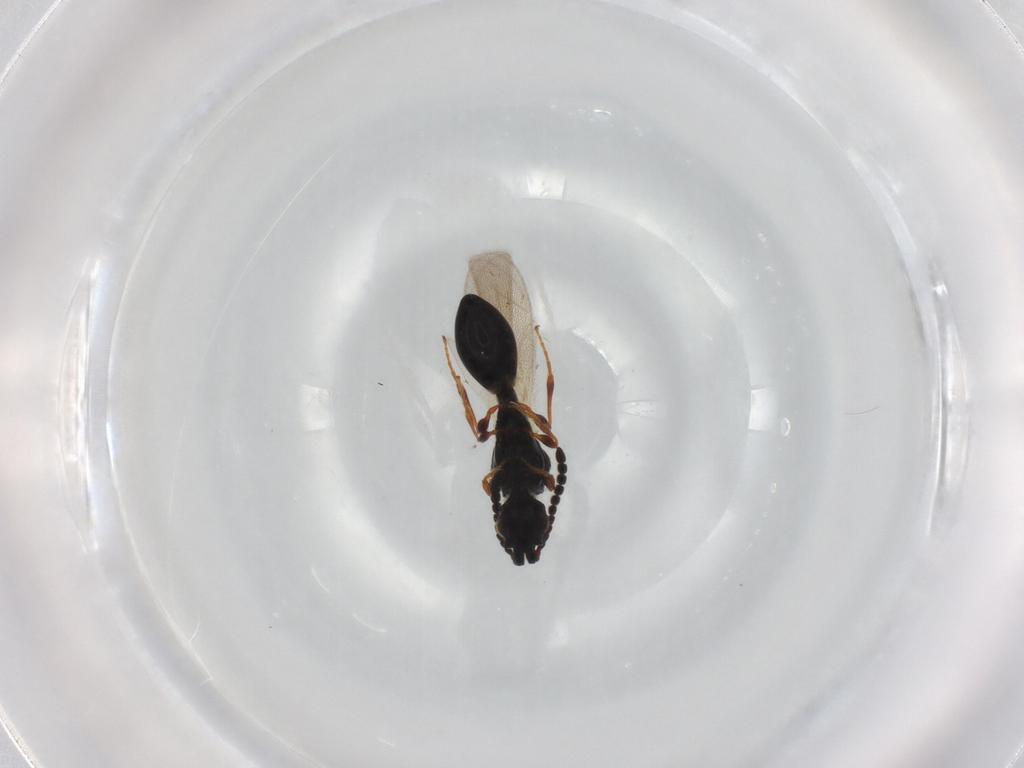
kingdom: Animalia
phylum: Arthropoda
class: Insecta
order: Hymenoptera
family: Diapriidae
